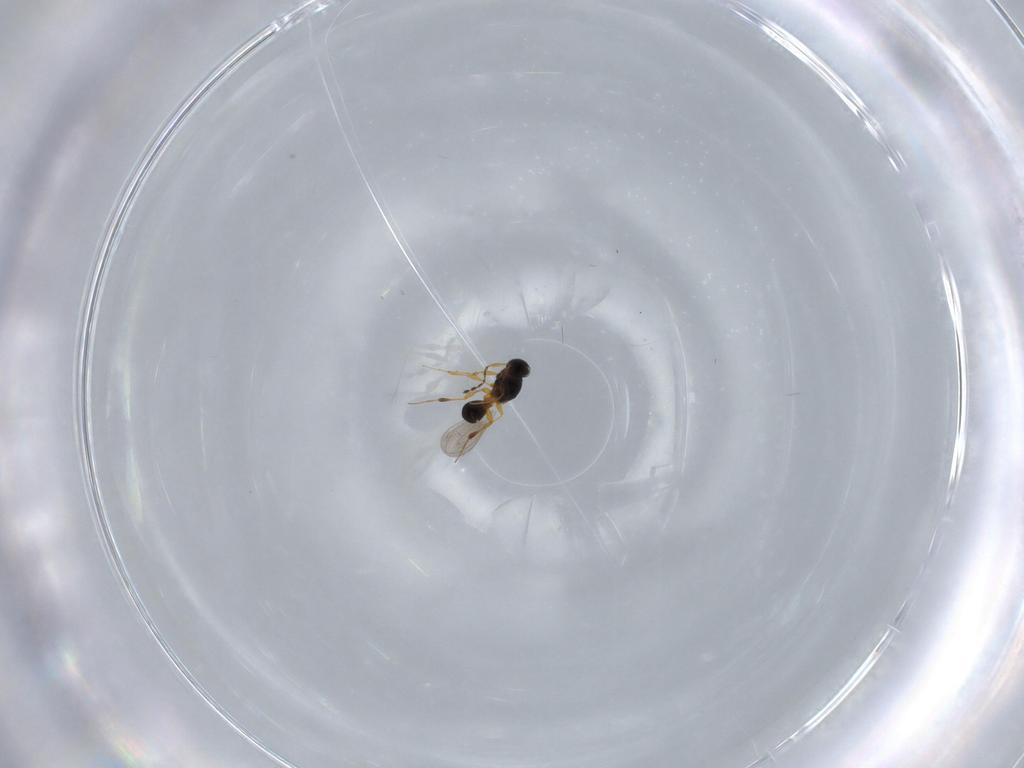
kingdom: Animalia
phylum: Arthropoda
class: Insecta
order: Hymenoptera
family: Platygastridae
